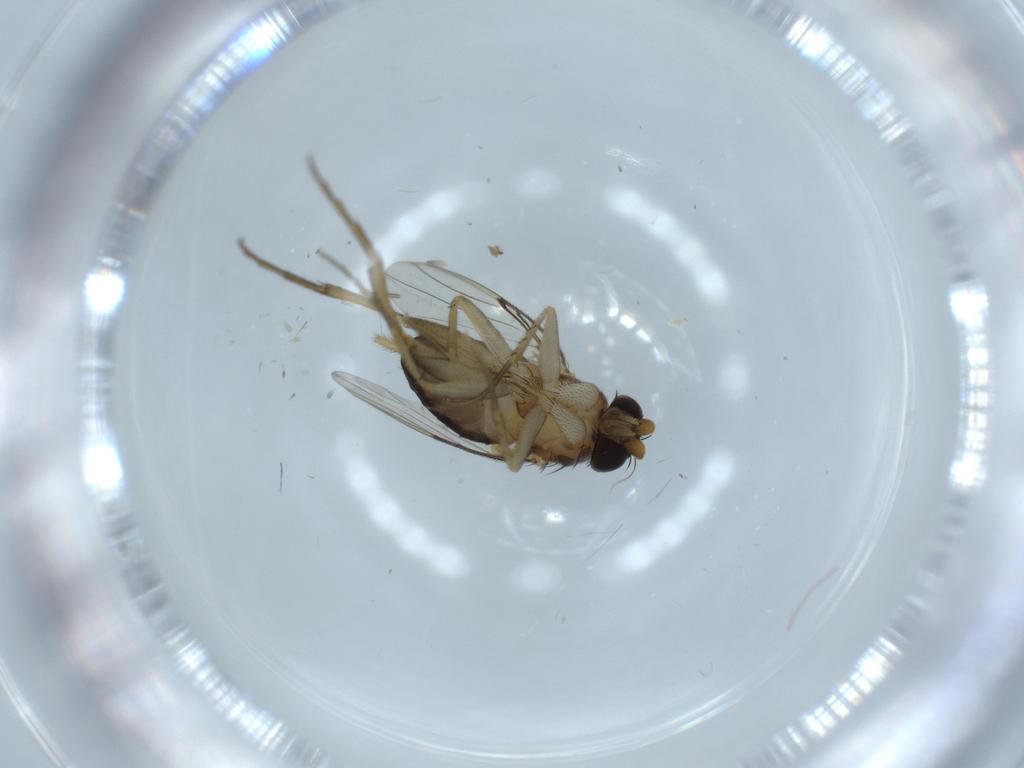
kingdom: Animalia
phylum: Arthropoda
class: Insecta
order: Diptera
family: Phoridae
